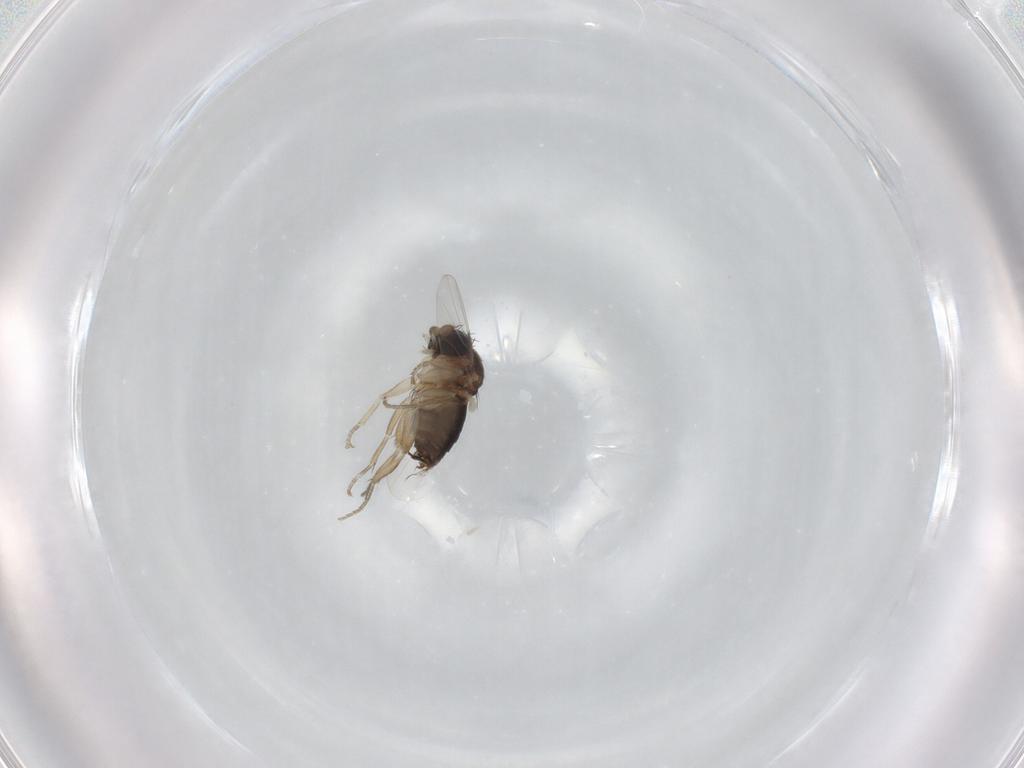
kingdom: Animalia
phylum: Arthropoda
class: Insecta
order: Diptera
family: Phoridae
